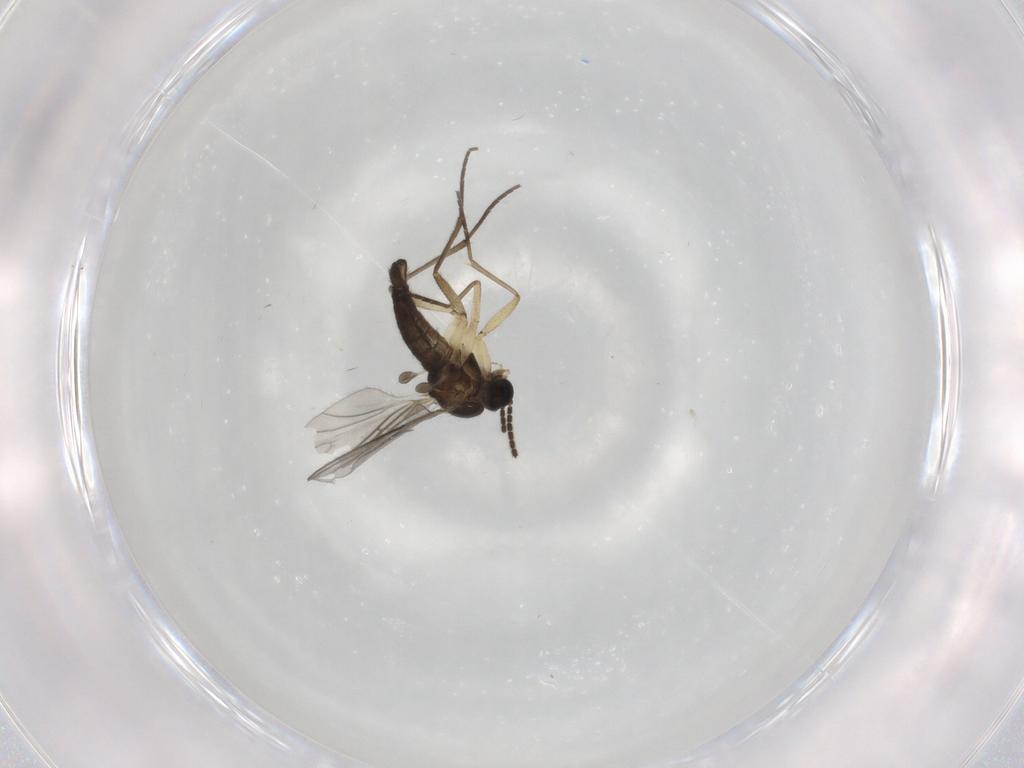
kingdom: Animalia
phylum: Arthropoda
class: Insecta
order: Diptera
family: Sciaridae
